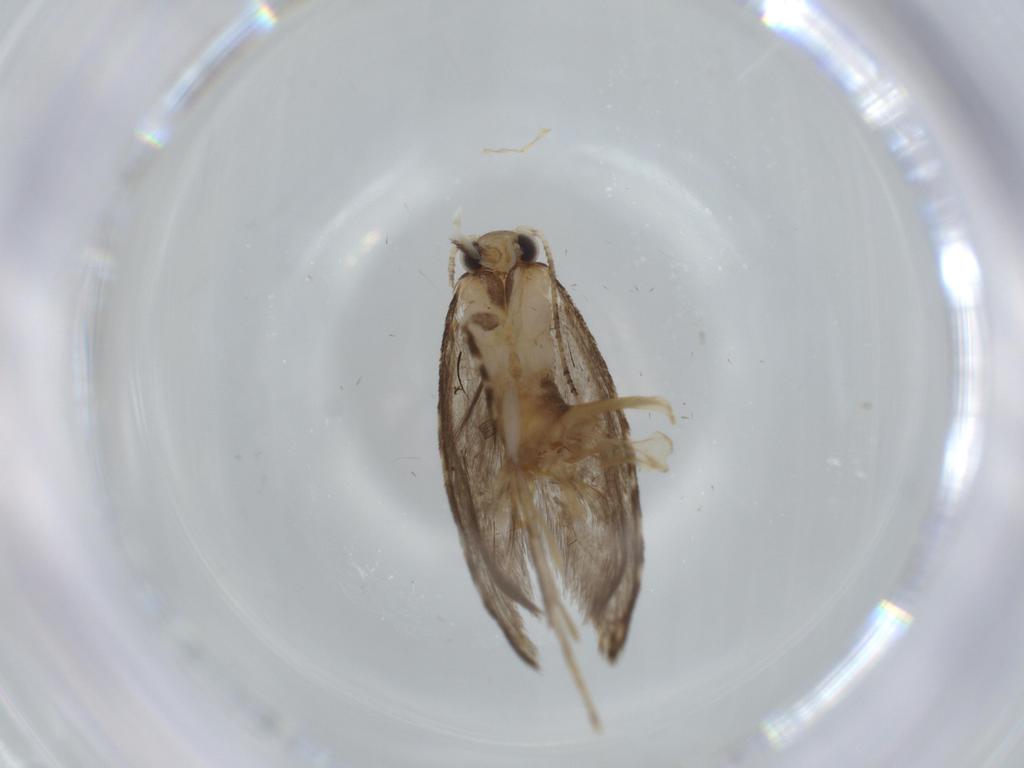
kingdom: Animalia
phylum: Arthropoda
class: Insecta
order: Lepidoptera
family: Tineidae
